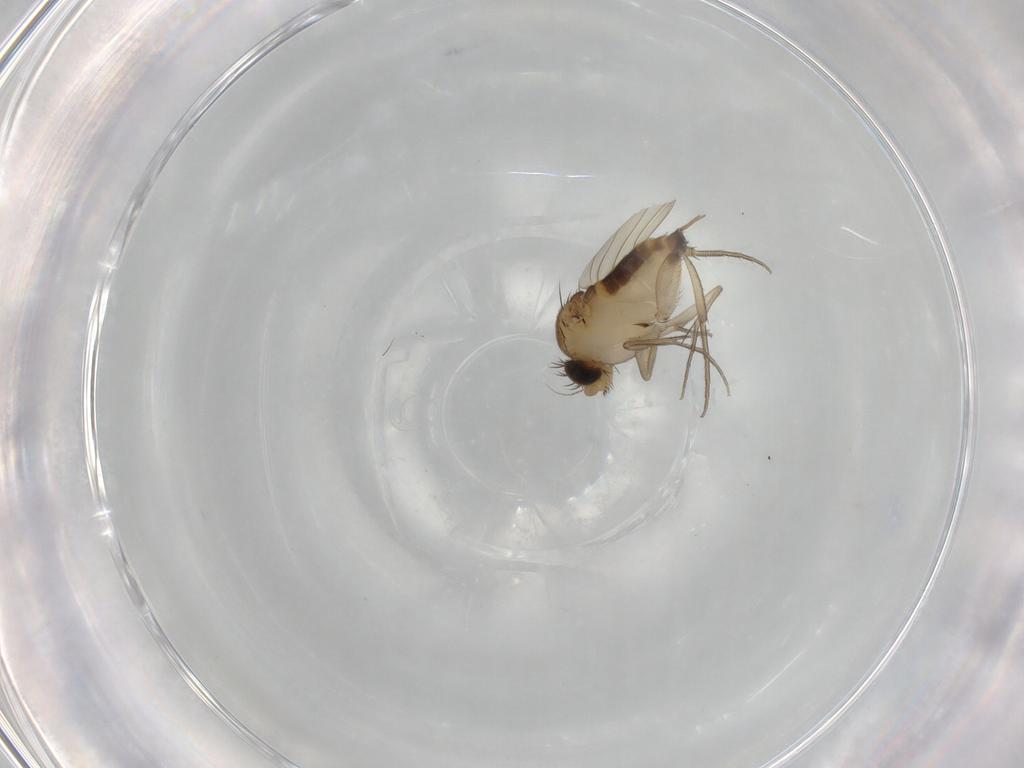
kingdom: Animalia
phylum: Arthropoda
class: Insecta
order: Diptera
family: Phoridae
